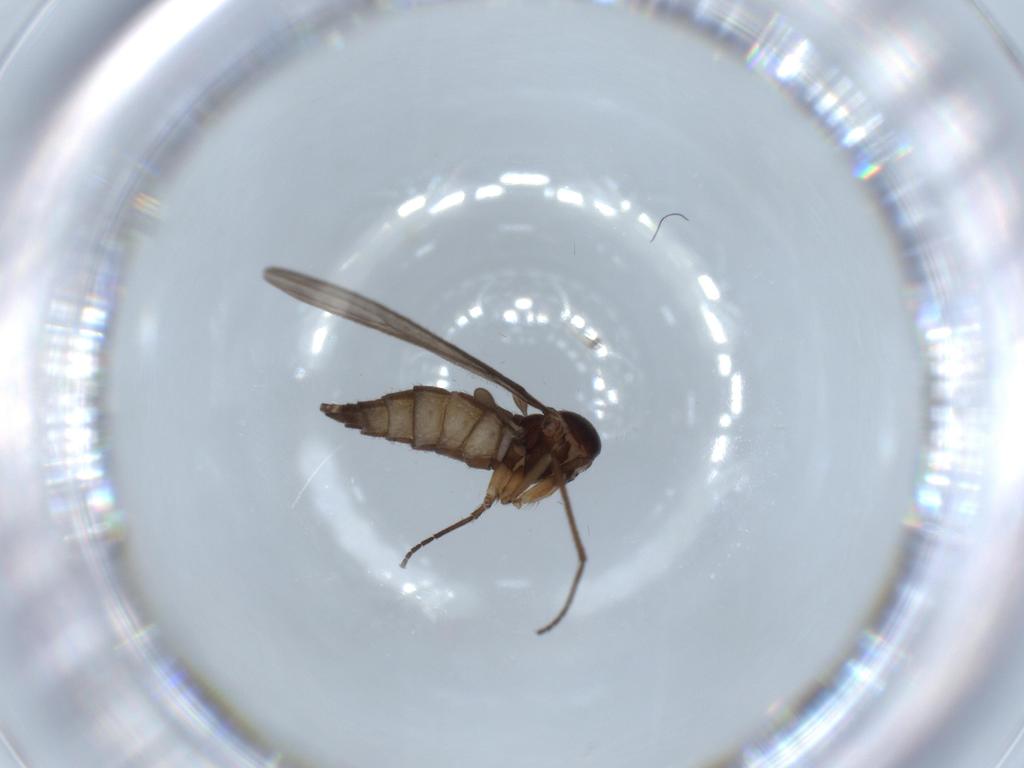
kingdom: Animalia
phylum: Arthropoda
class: Insecta
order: Diptera
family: Sciaridae
